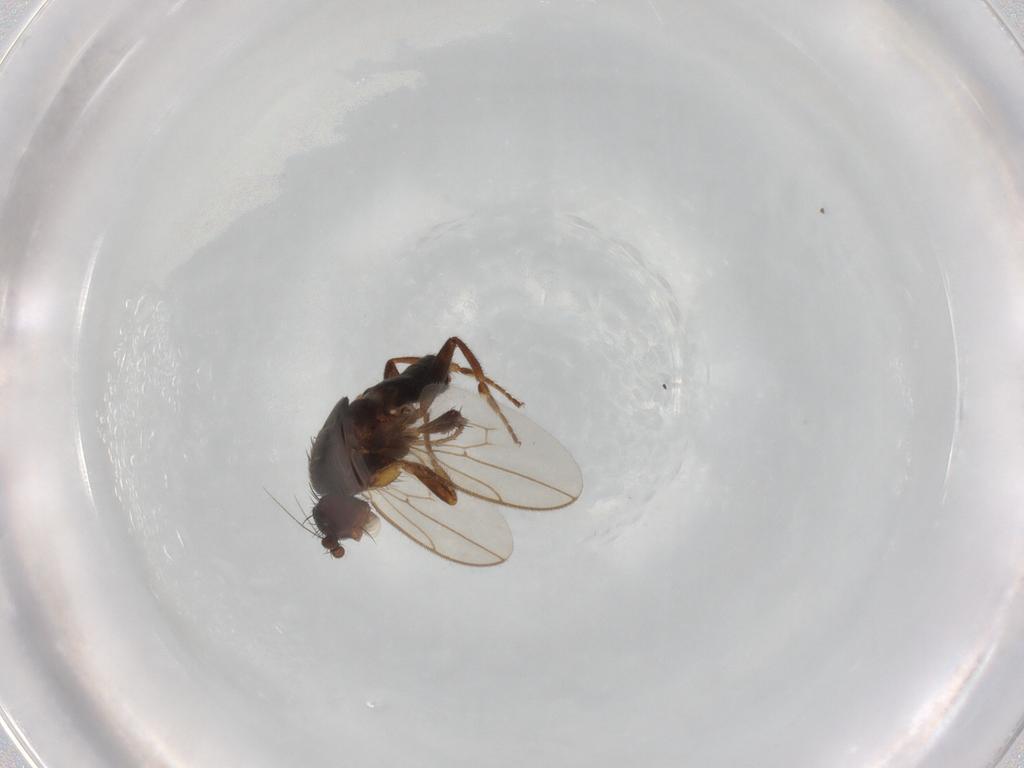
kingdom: Animalia
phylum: Arthropoda
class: Insecta
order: Diptera
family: Sphaeroceridae
